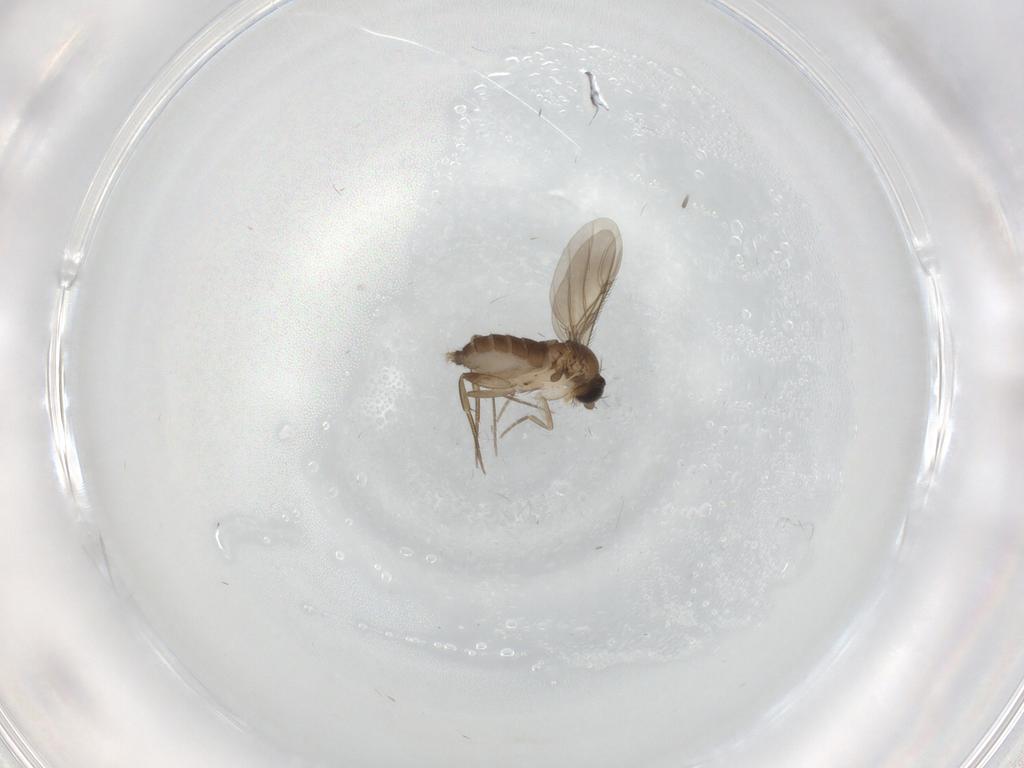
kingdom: Animalia
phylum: Arthropoda
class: Insecta
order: Diptera
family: Phoridae
